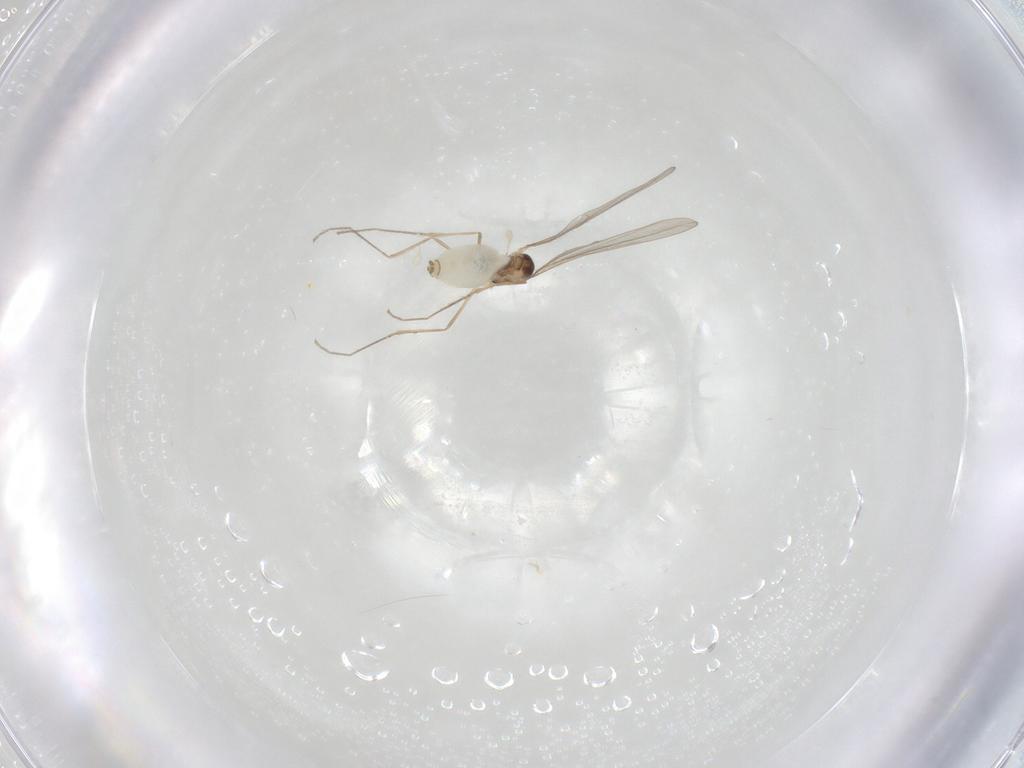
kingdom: Animalia
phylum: Arthropoda
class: Insecta
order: Diptera
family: Cecidomyiidae
